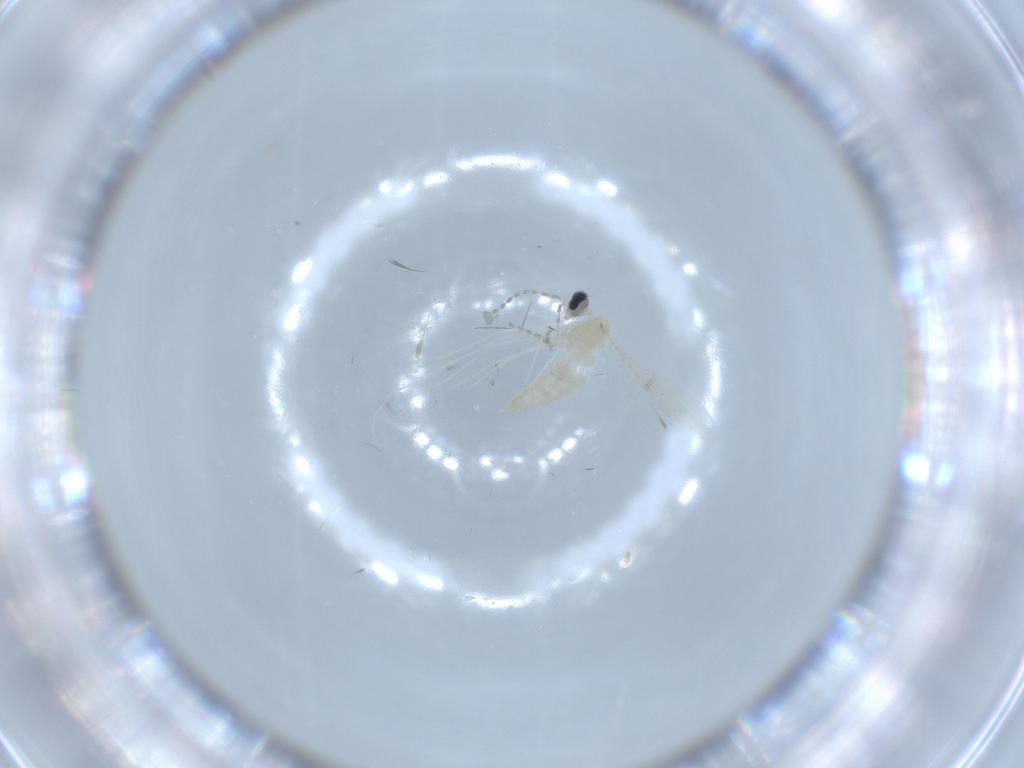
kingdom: Animalia
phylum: Arthropoda
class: Insecta
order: Diptera
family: Cecidomyiidae
